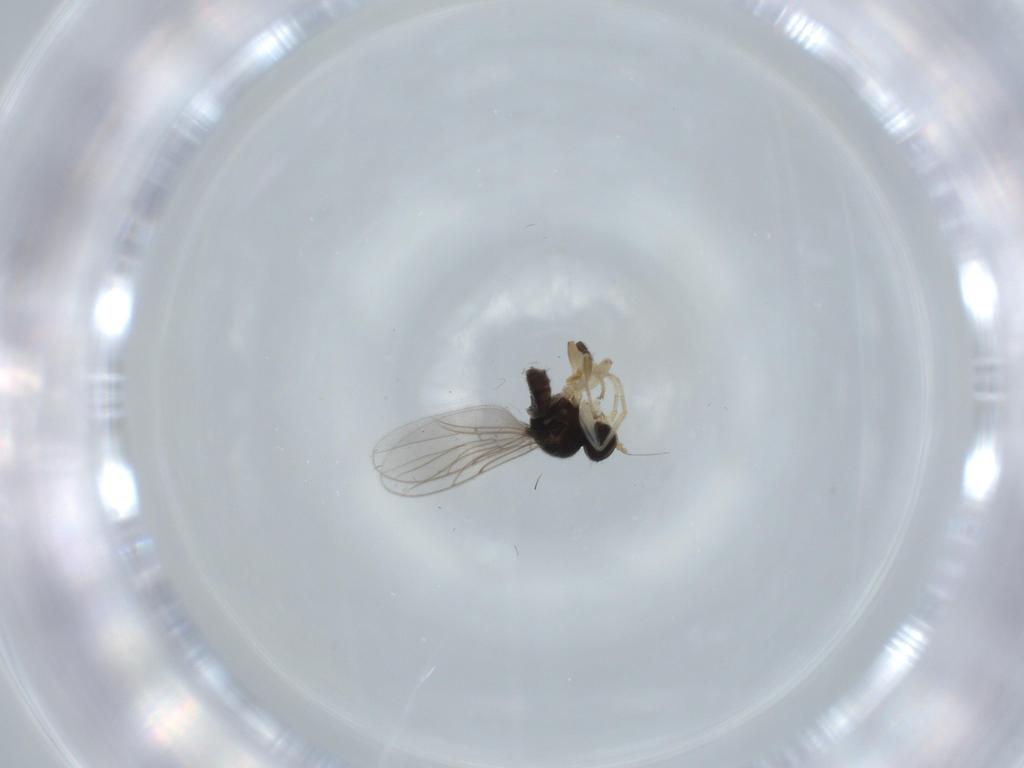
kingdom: Animalia
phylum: Arthropoda
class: Insecta
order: Diptera
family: Hybotidae
